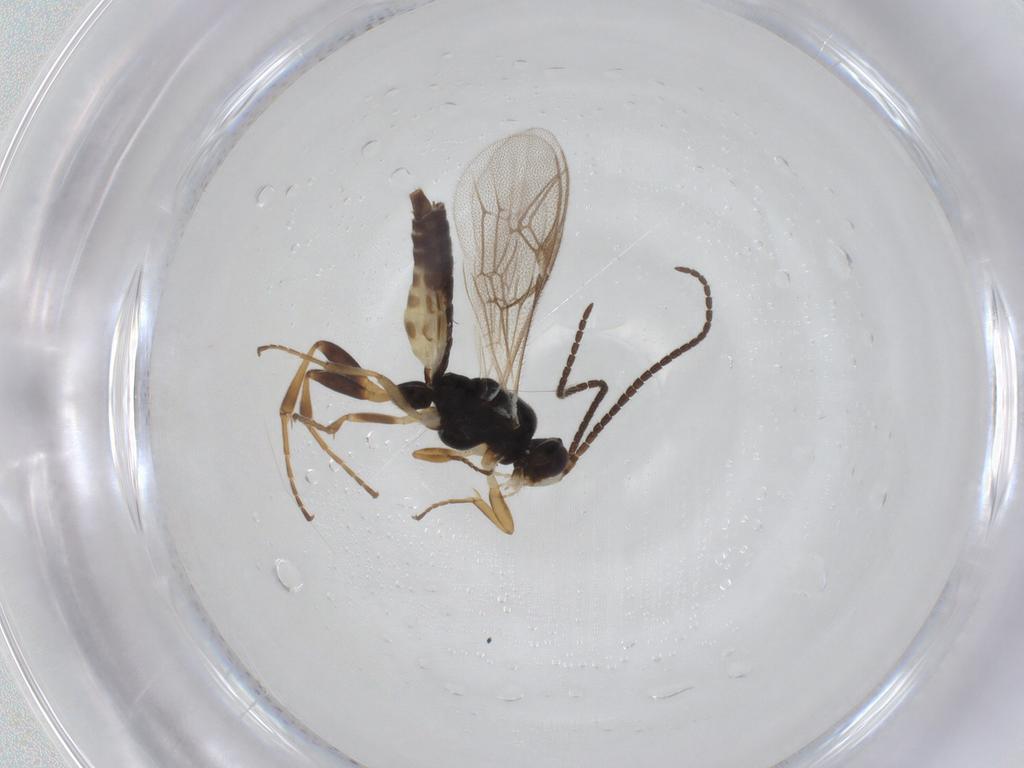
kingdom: Animalia
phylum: Arthropoda
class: Insecta
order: Hymenoptera
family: Ichneumonidae
